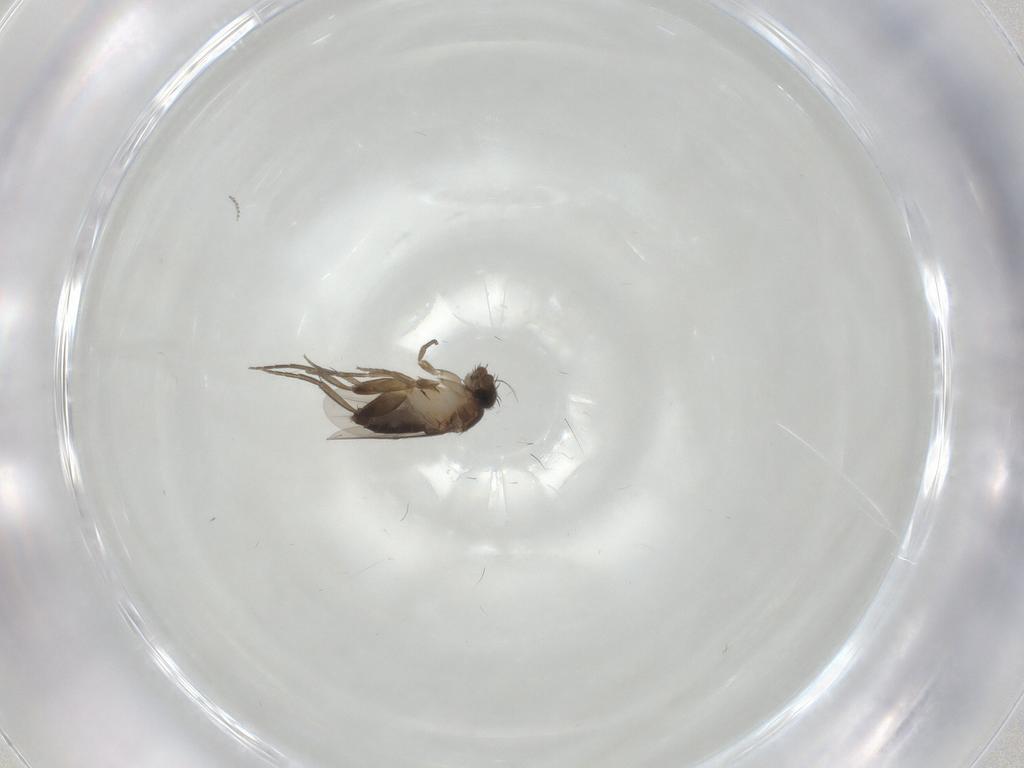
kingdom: Animalia
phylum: Arthropoda
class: Insecta
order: Diptera
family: Phoridae
